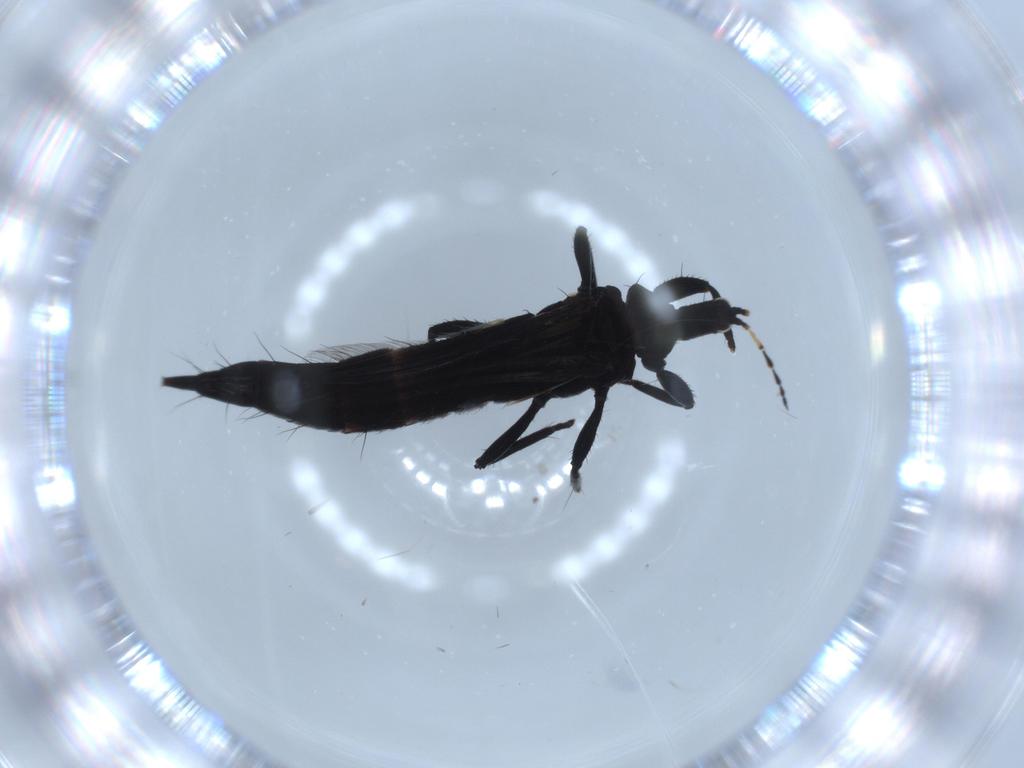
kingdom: Animalia
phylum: Arthropoda
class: Insecta
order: Thysanoptera
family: Phlaeothripidae
